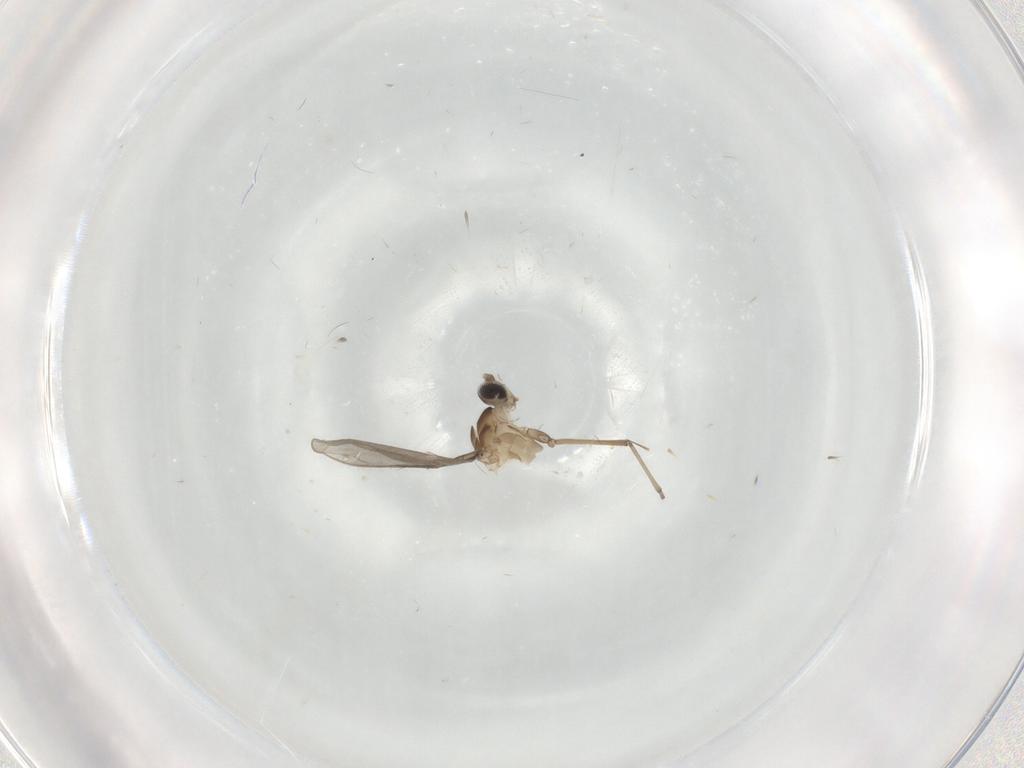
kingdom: Animalia
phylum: Arthropoda
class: Insecta
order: Diptera
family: Cecidomyiidae
